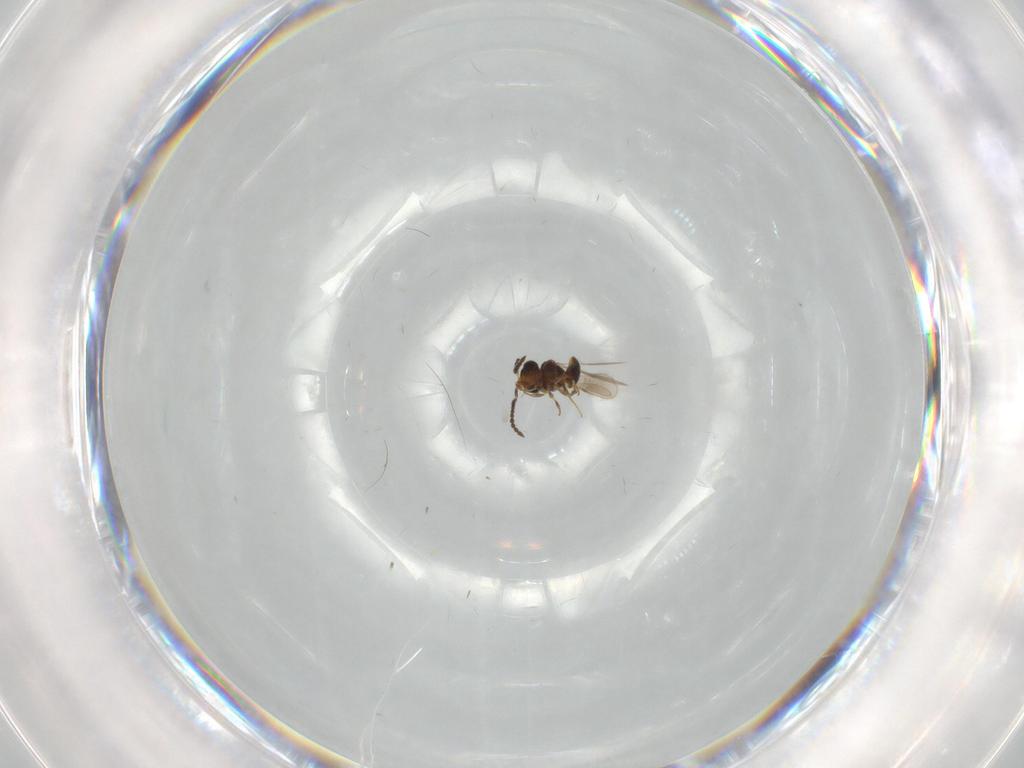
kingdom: Animalia
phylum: Arthropoda
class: Insecta
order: Hymenoptera
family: Scelionidae
